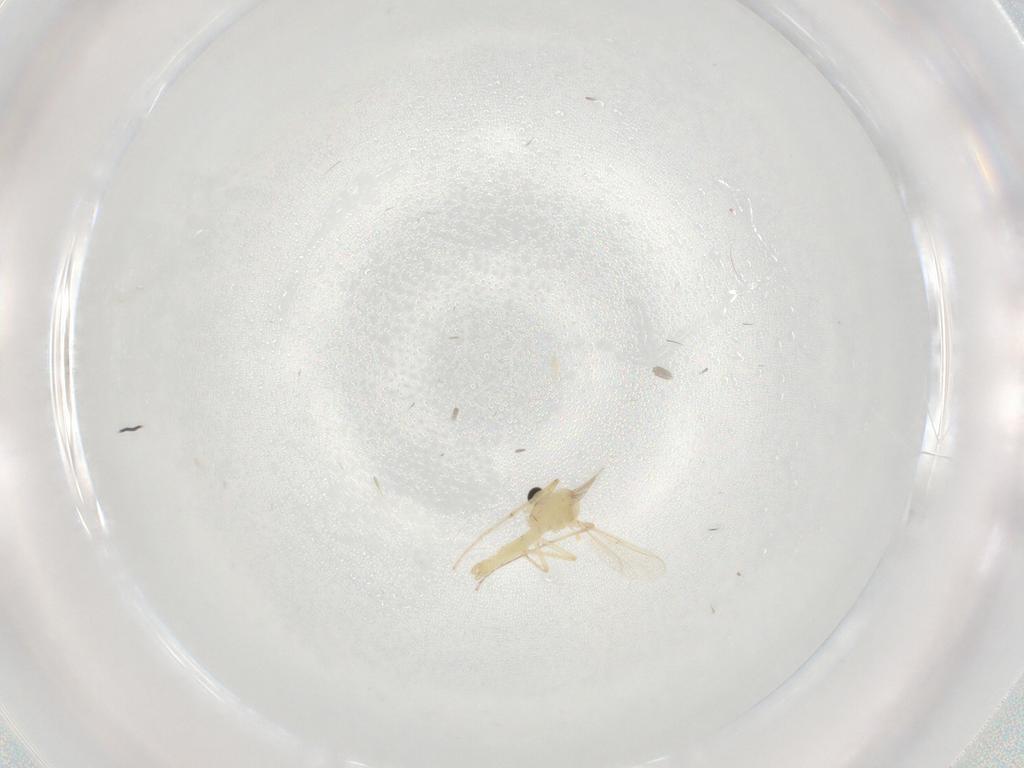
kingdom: Animalia
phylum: Arthropoda
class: Insecta
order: Diptera
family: Chironomidae
